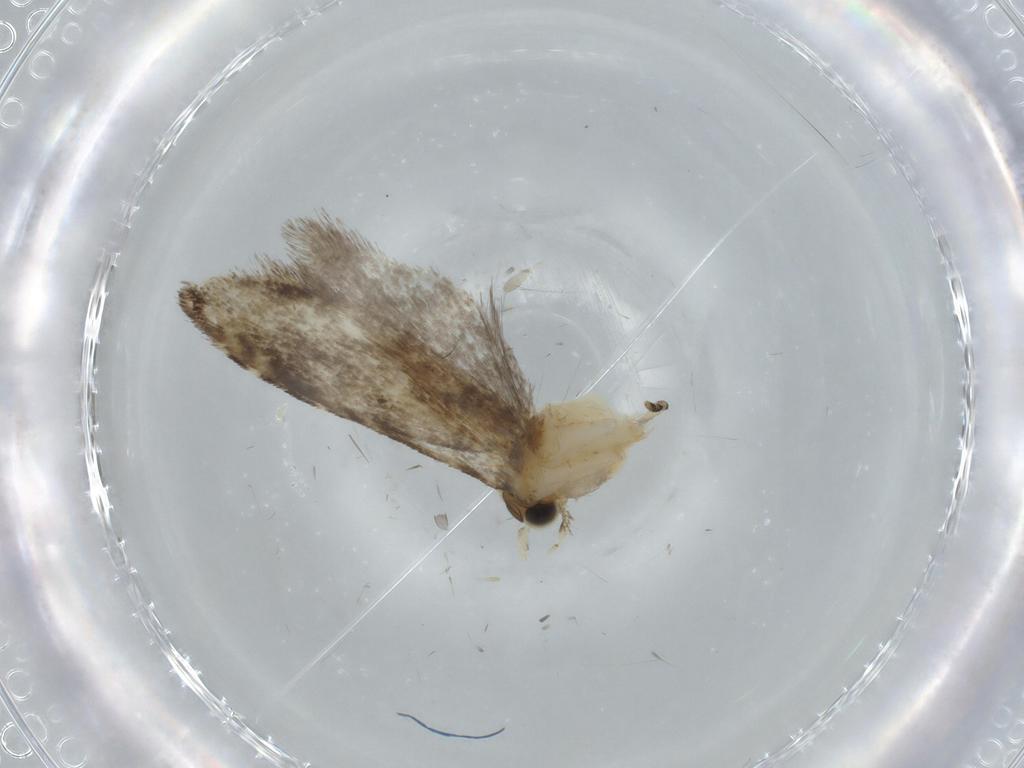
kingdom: Animalia
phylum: Arthropoda
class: Insecta
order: Lepidoptera
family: Tineidae
